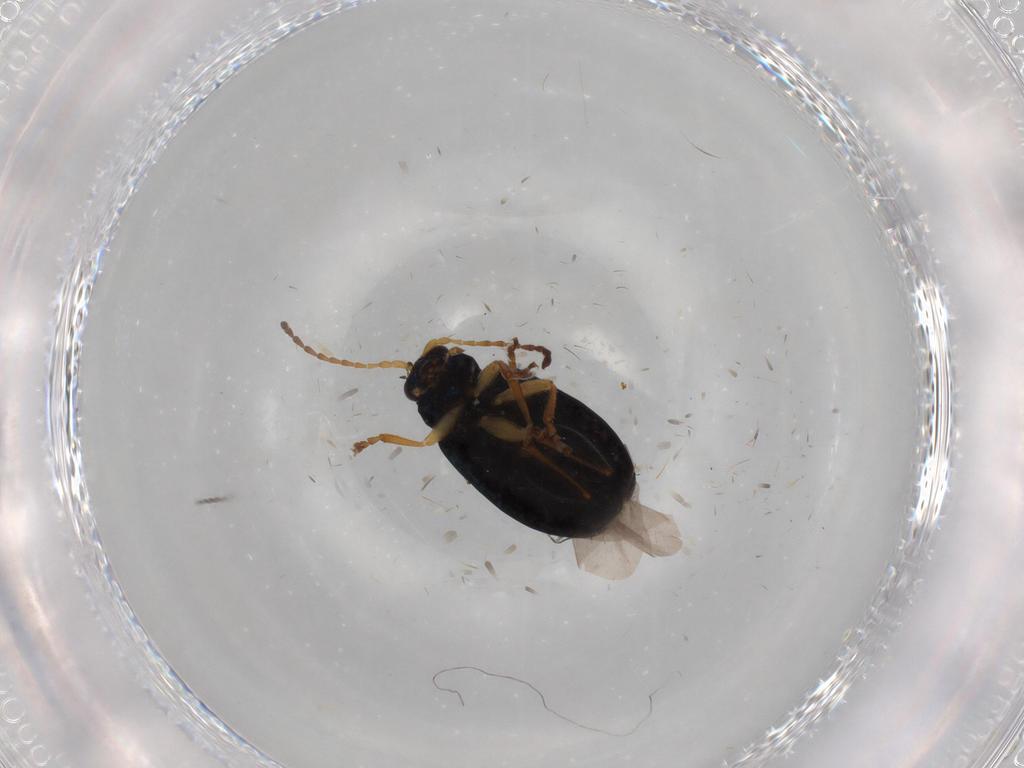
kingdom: Animalia
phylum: Arthropoda
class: Insecta
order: Coleoptera
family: Chrysomelidae
